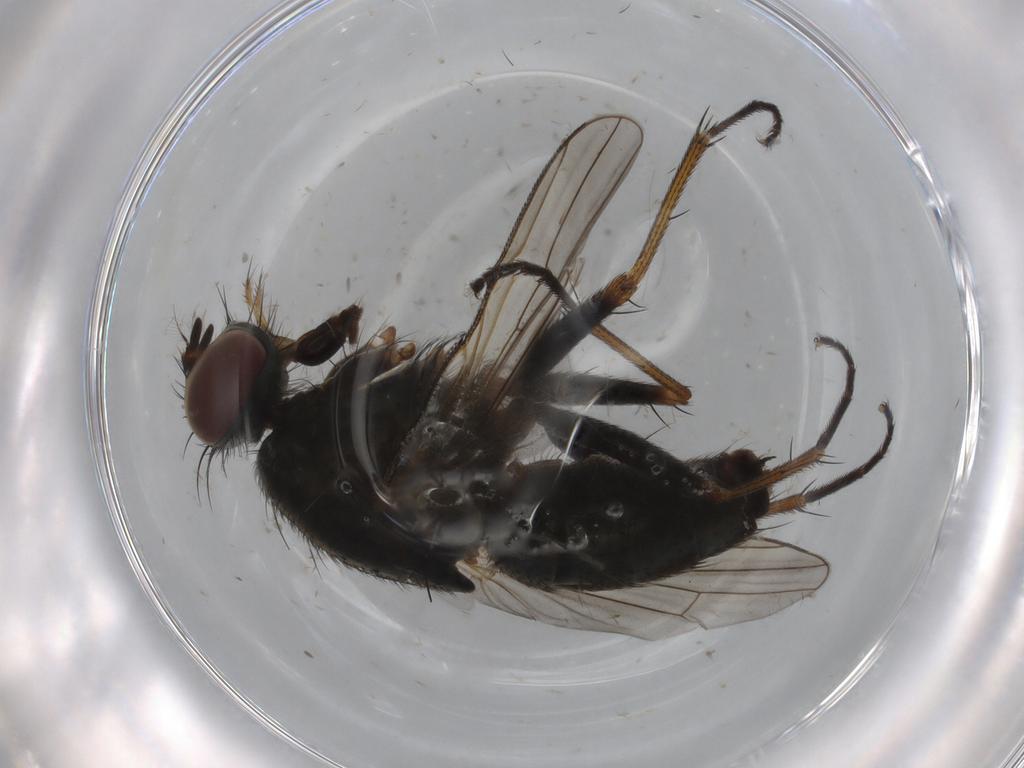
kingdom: Animalia
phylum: Arthropoda
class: Insecta
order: Diptera
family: Muscidae
